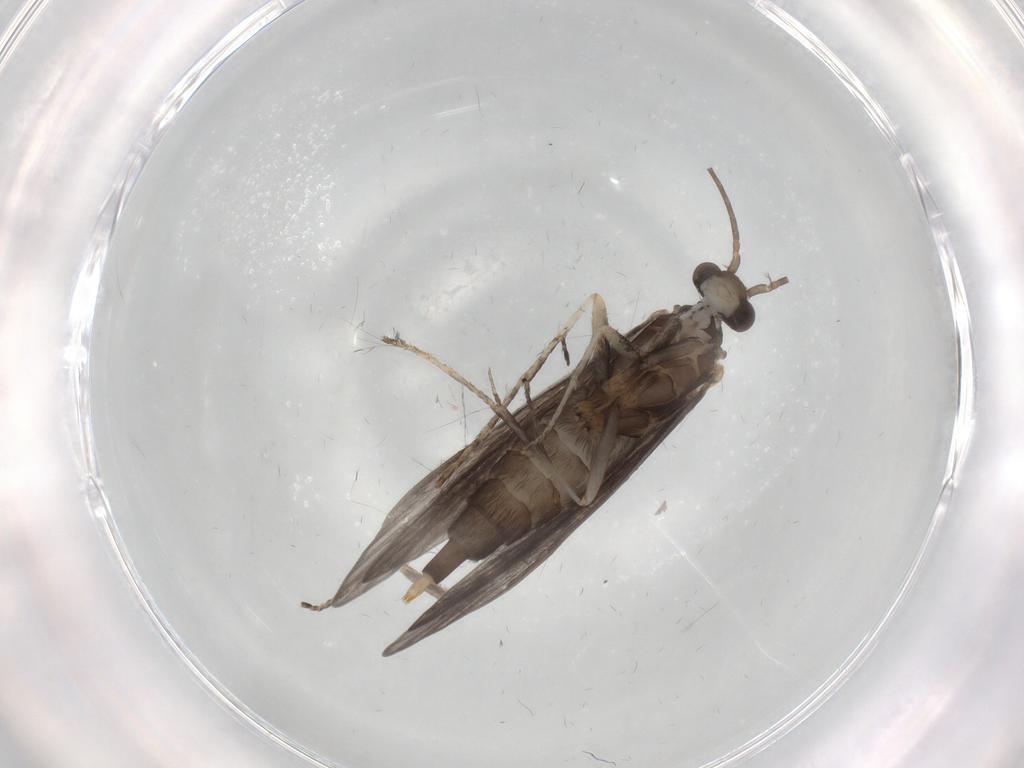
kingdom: Animalia
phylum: Arthropoda
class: Insecta
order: Trichoptera
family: Xiphocentronidae
